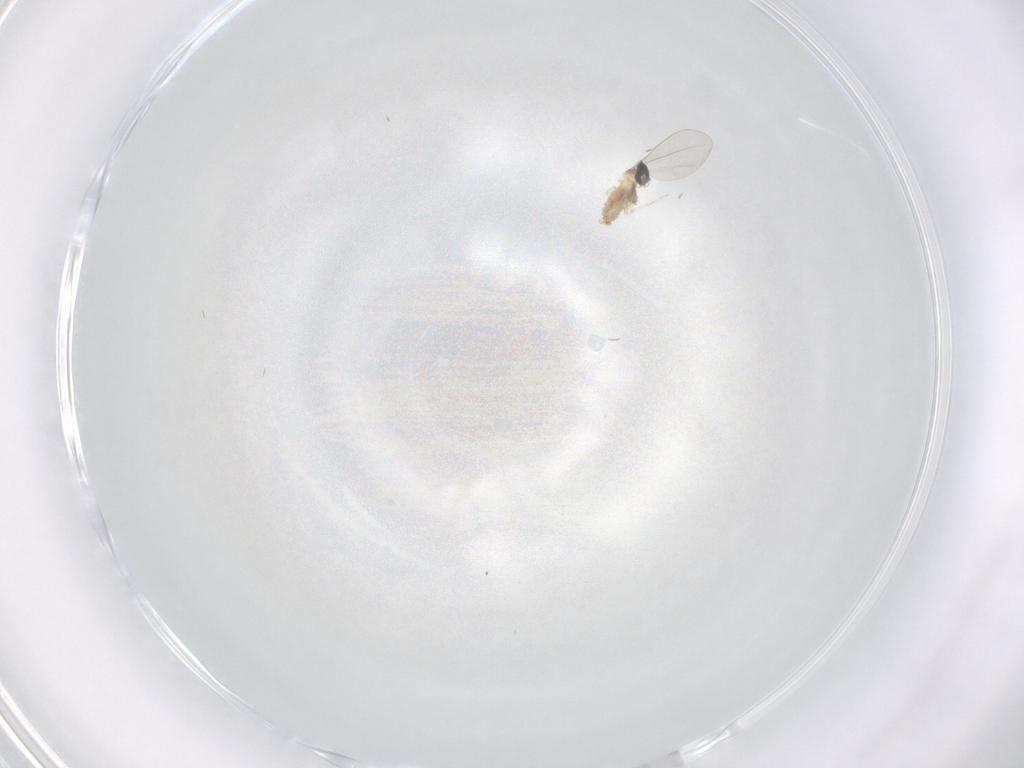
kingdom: Animalia
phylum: Arthropoda
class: Insecta
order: Diptera
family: Cecidomyiidae
